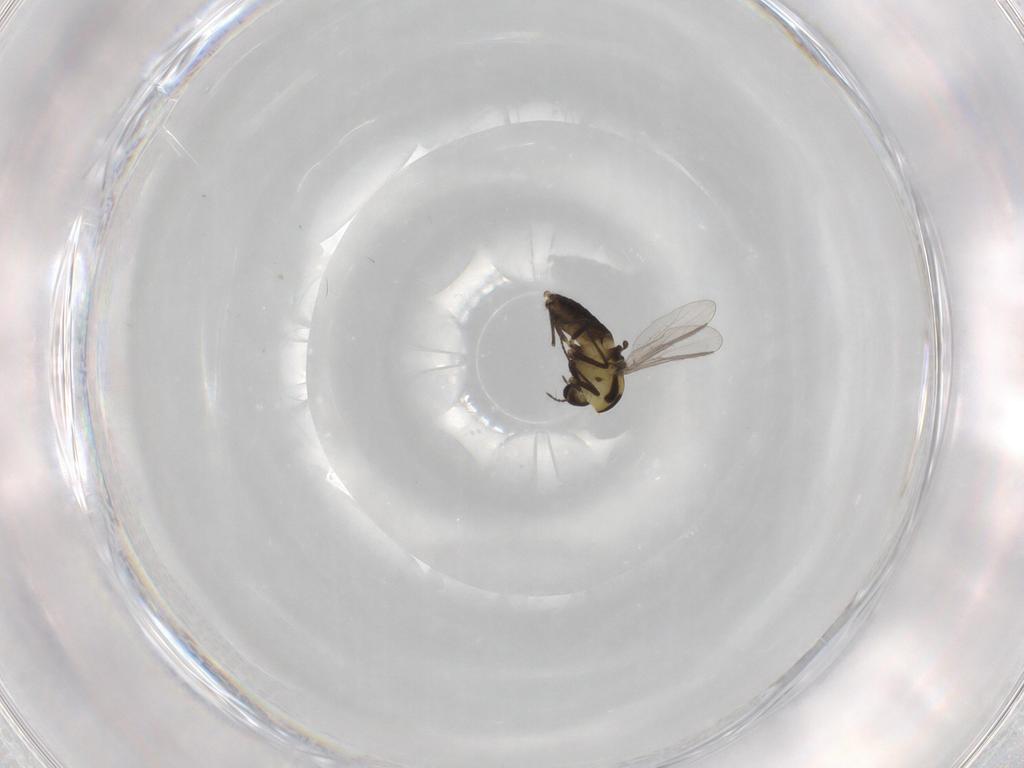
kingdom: Animalia
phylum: Arthropoda
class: Insecta
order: Diptera
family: Chironomidae
